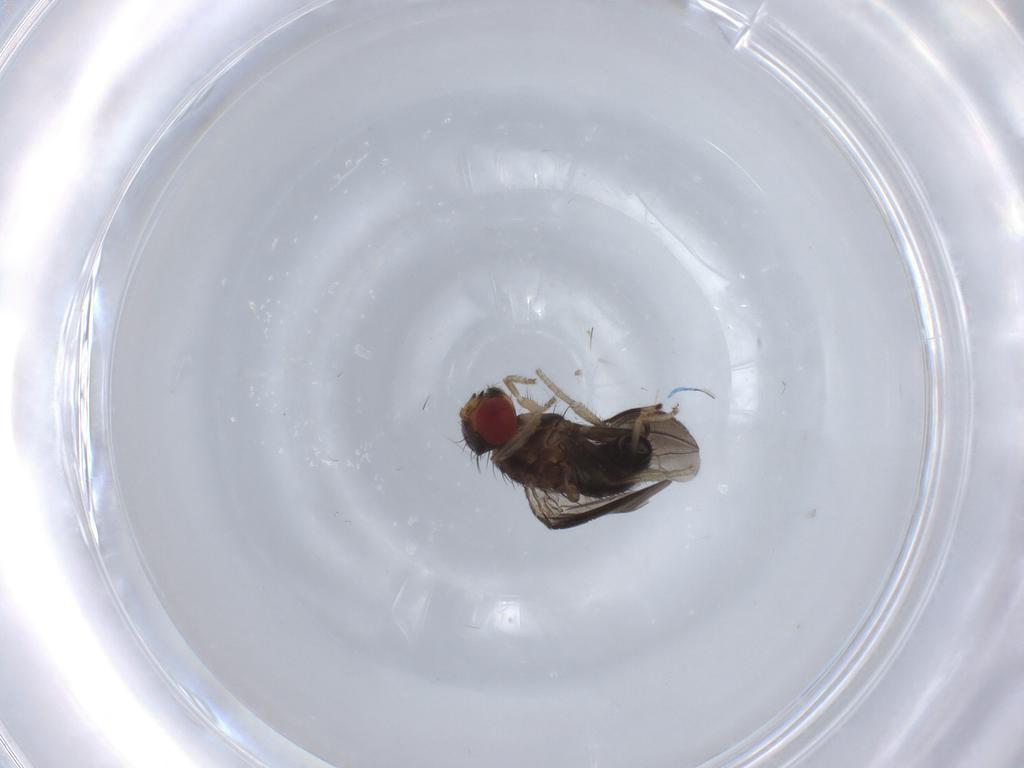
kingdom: Animalia
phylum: Arthropoda
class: Insecta
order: Diptera
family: Drosophilidae
